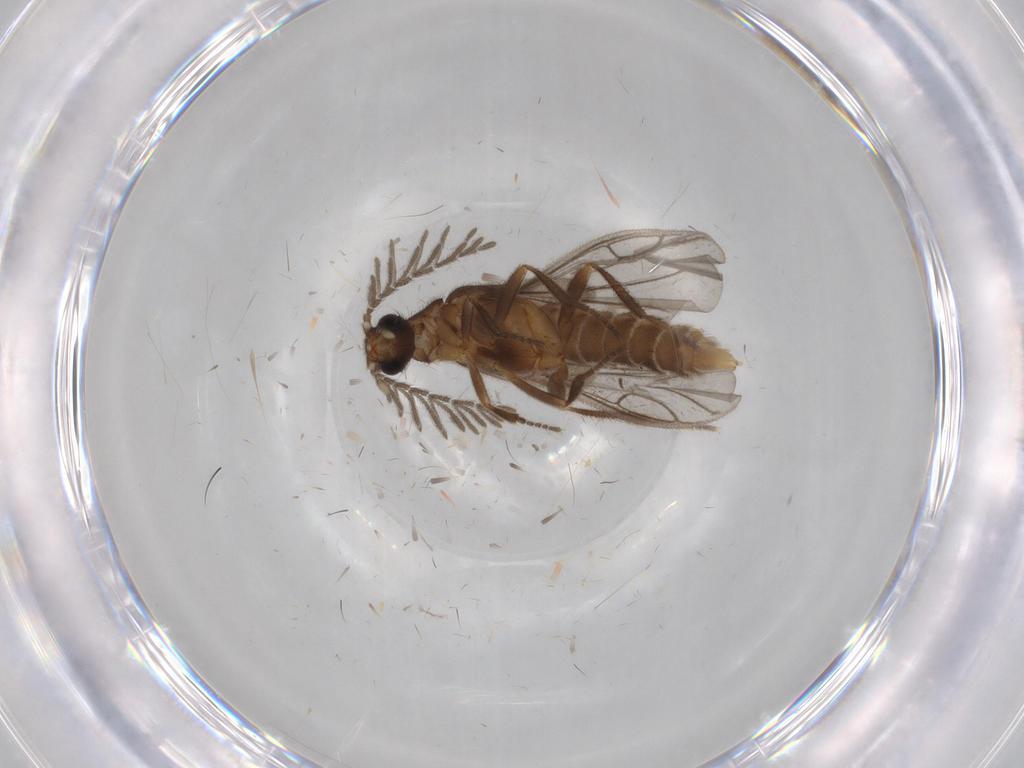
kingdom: Animalia
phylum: Arthropoda
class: Insecta
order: Coleoptera
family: Chrysomelidae
